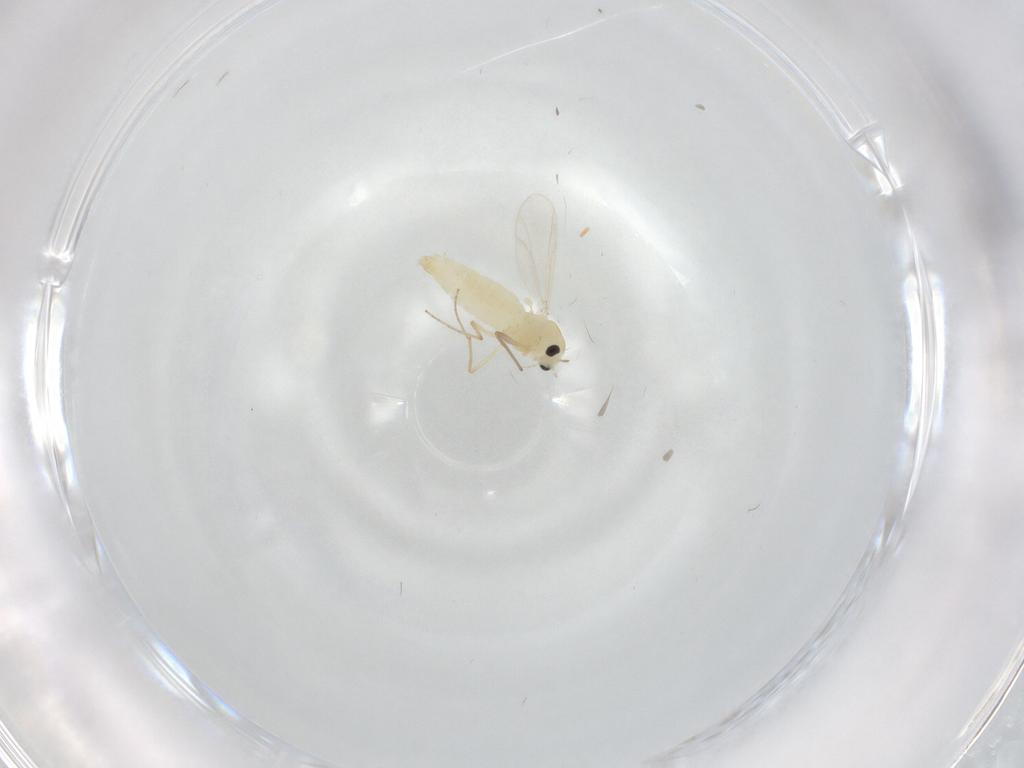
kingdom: Animalia
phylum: Arthropoda
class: Insecta
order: Diptera
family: Chironomidae
